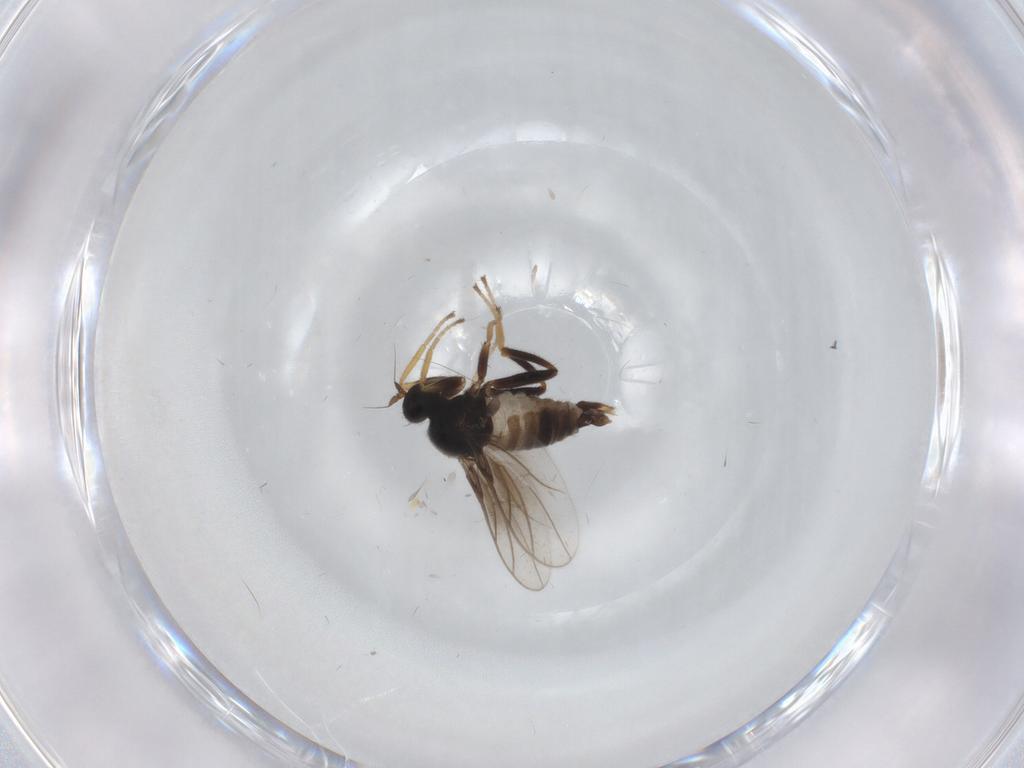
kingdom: Animalia
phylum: Arthropoda
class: Insecta
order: Diptera
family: Hybotidae
